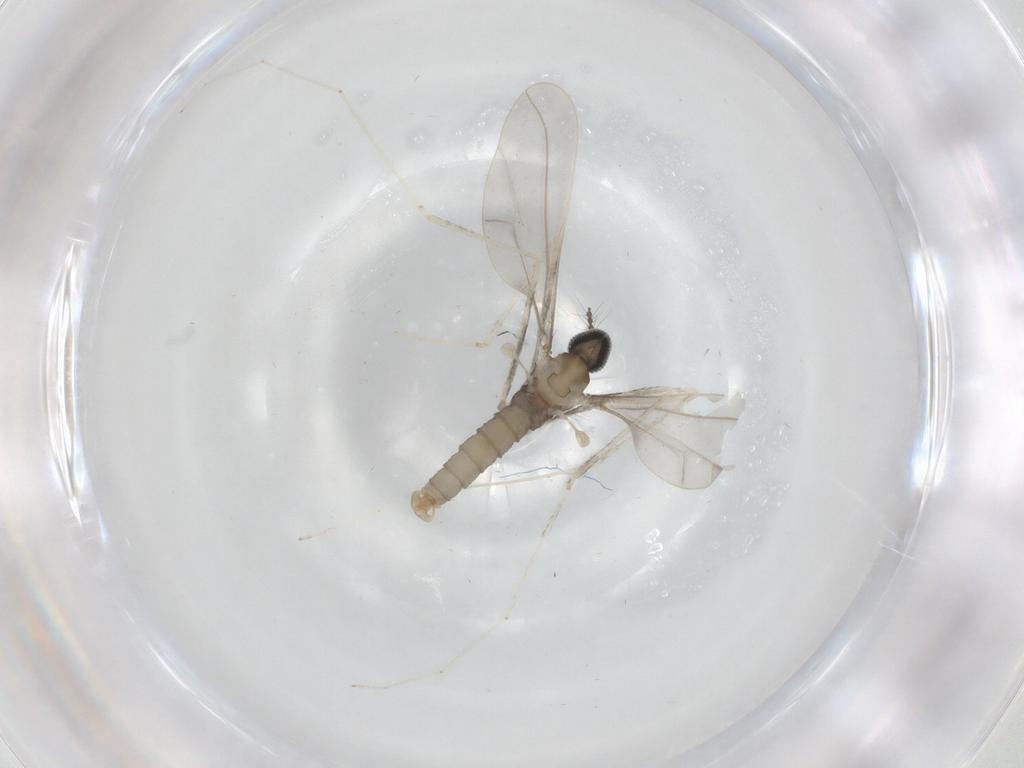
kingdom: Animalia
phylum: Arthropoda
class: Insecta
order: Diptera
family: Cecidomyiidae
